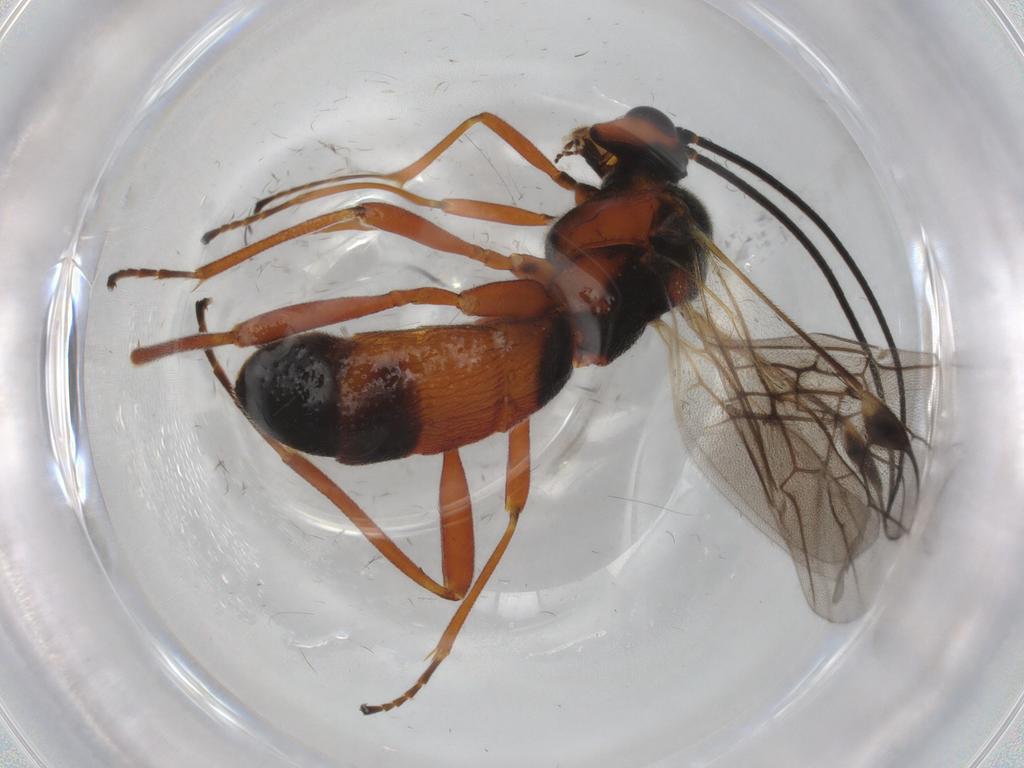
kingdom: Animalia
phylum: Arthropoda
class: Insecta
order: Hymenoptera
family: Braconidae
